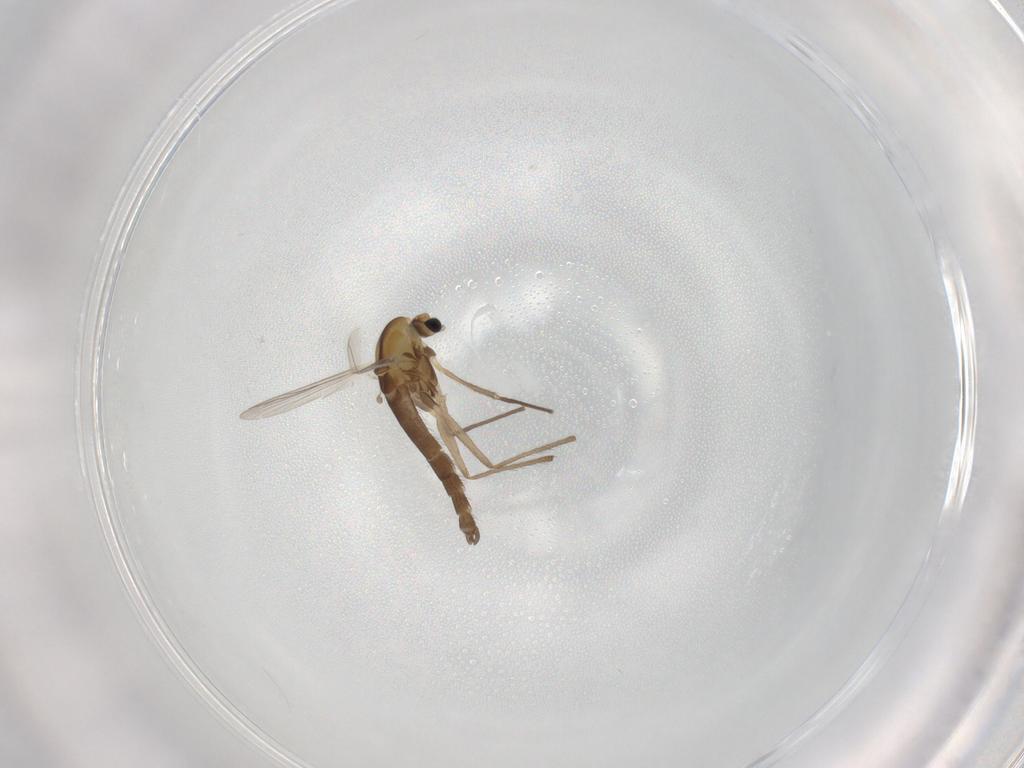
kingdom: Animalia
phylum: Arthropoda
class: Insecta
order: Diptera
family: Chironomidae
